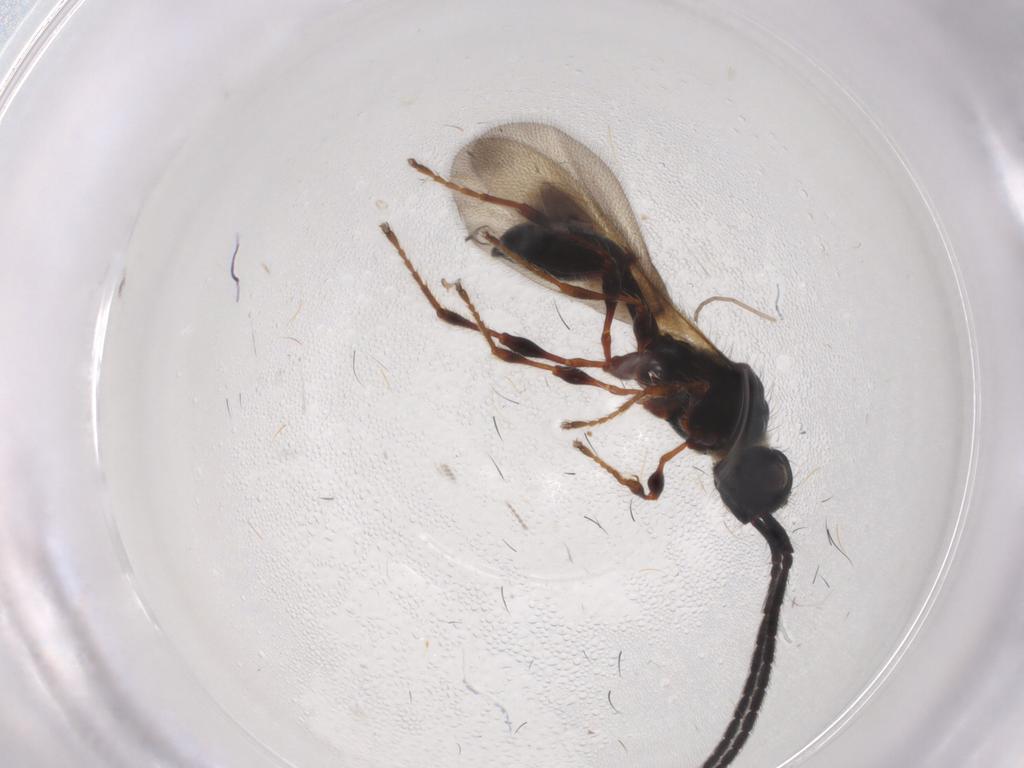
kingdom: Animalia
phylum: Arthropoda
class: Insecta
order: Hymenoptera
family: Diapriidae
